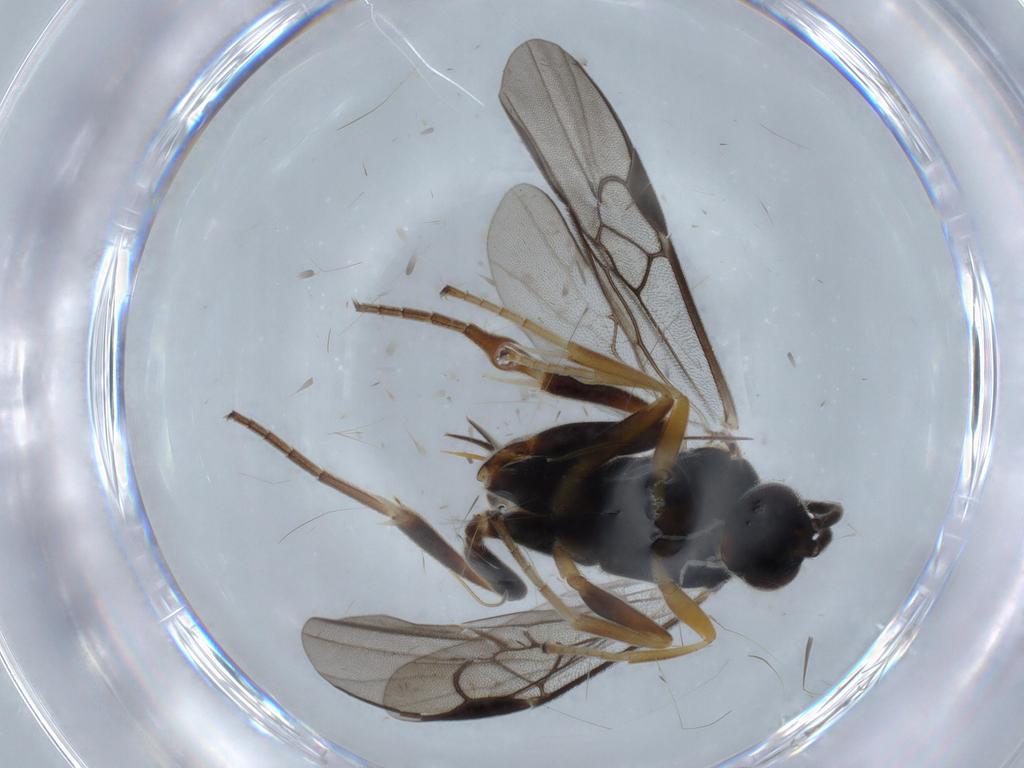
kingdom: Animalia
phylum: Arthropoda
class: Insecta
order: Hymenoptera
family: Braconidae
